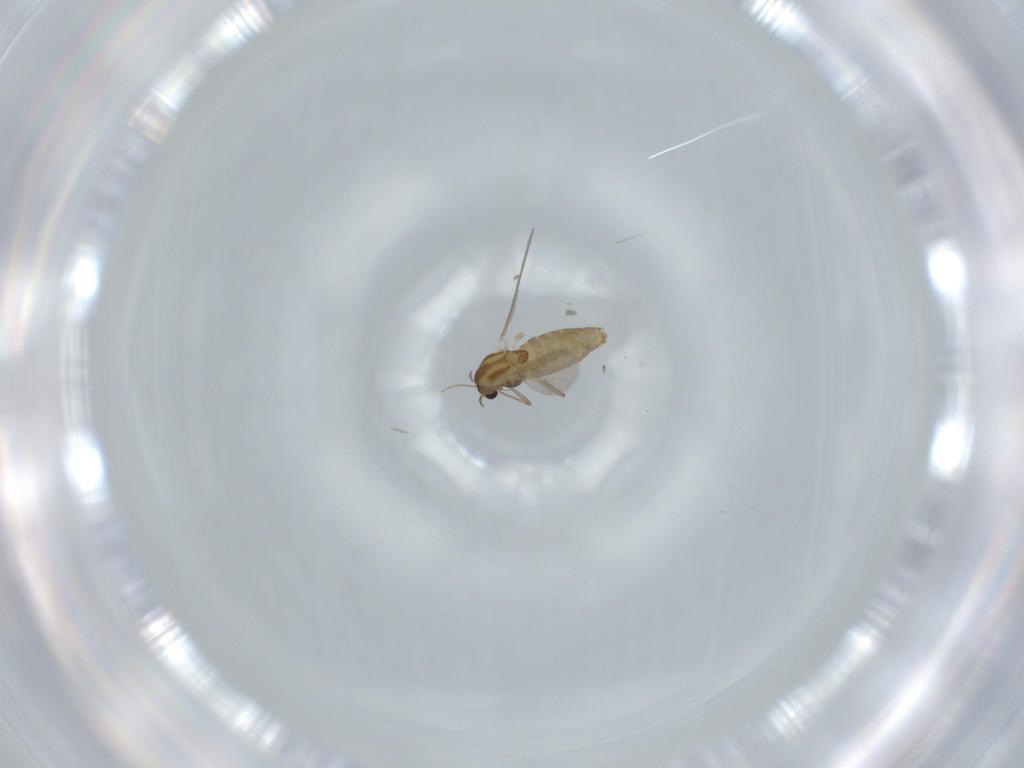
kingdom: Animalia
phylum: Arthropoda
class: Insecta
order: Diptera
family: Chironomidae
